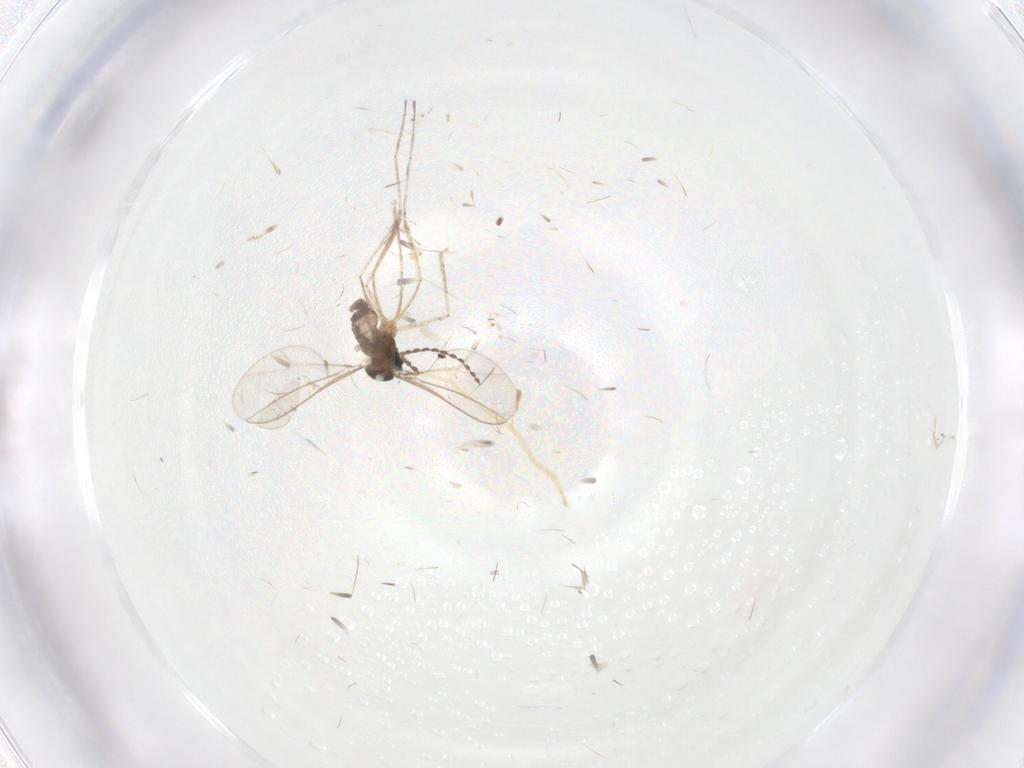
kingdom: Animalia
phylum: Arthropoda
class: Insecta
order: Diptera
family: Cecidomyiidae
